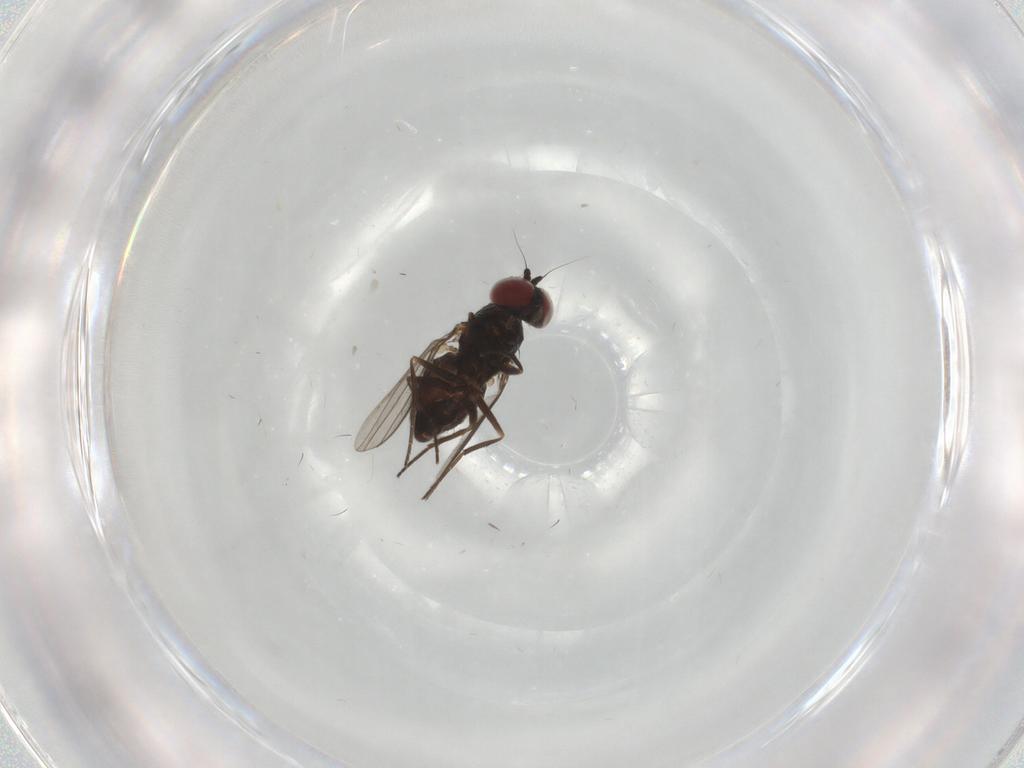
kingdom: Animalia
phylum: Arthropoda
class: Insecta
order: Diptera
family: Dolichopodidae
